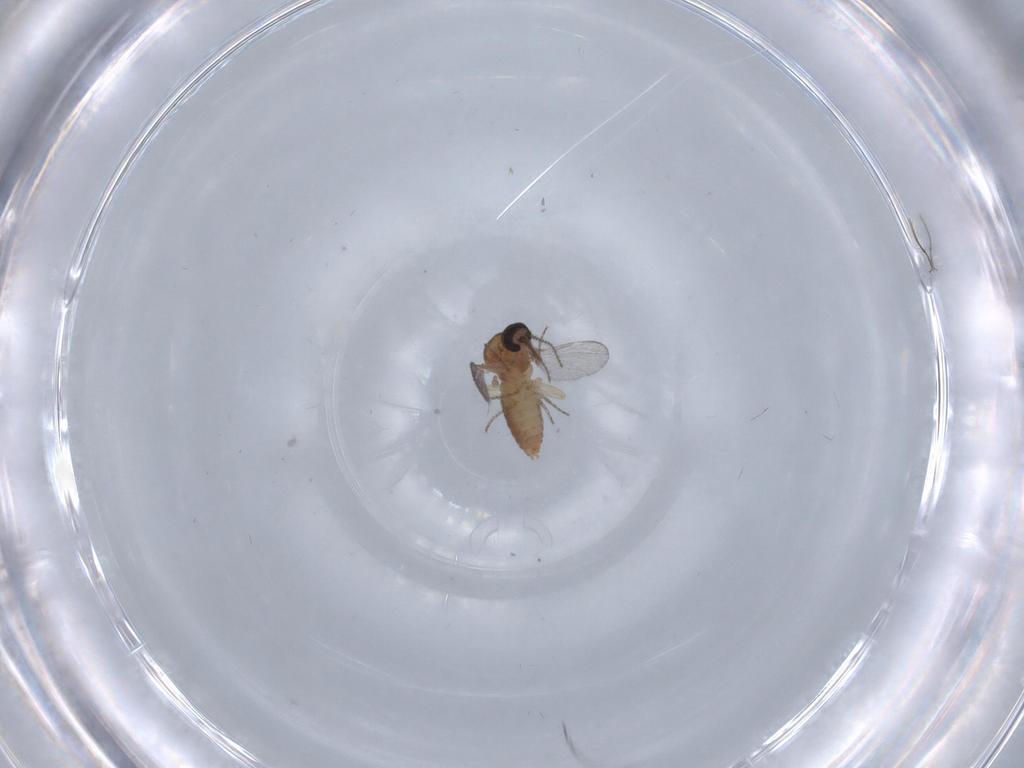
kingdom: Animalia
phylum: Arthropoda
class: Insecta
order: Diptera
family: Ceratopogonidae
